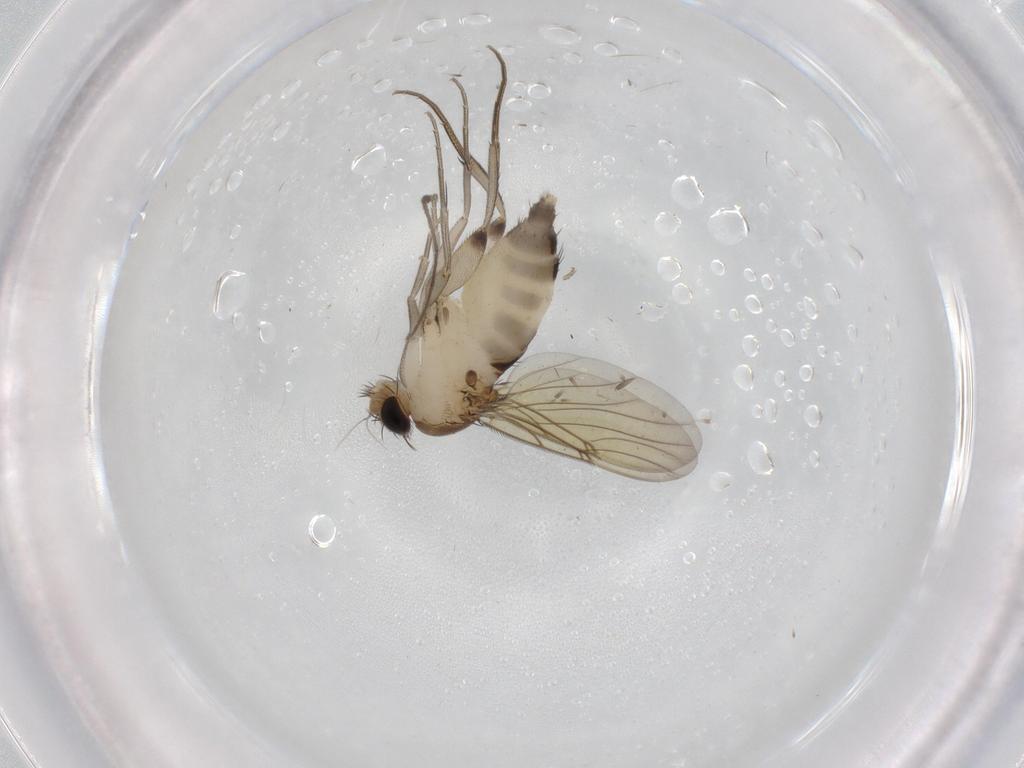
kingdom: Animalia
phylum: Arthropoda
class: Insecta
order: Diptera
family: Phoridae
